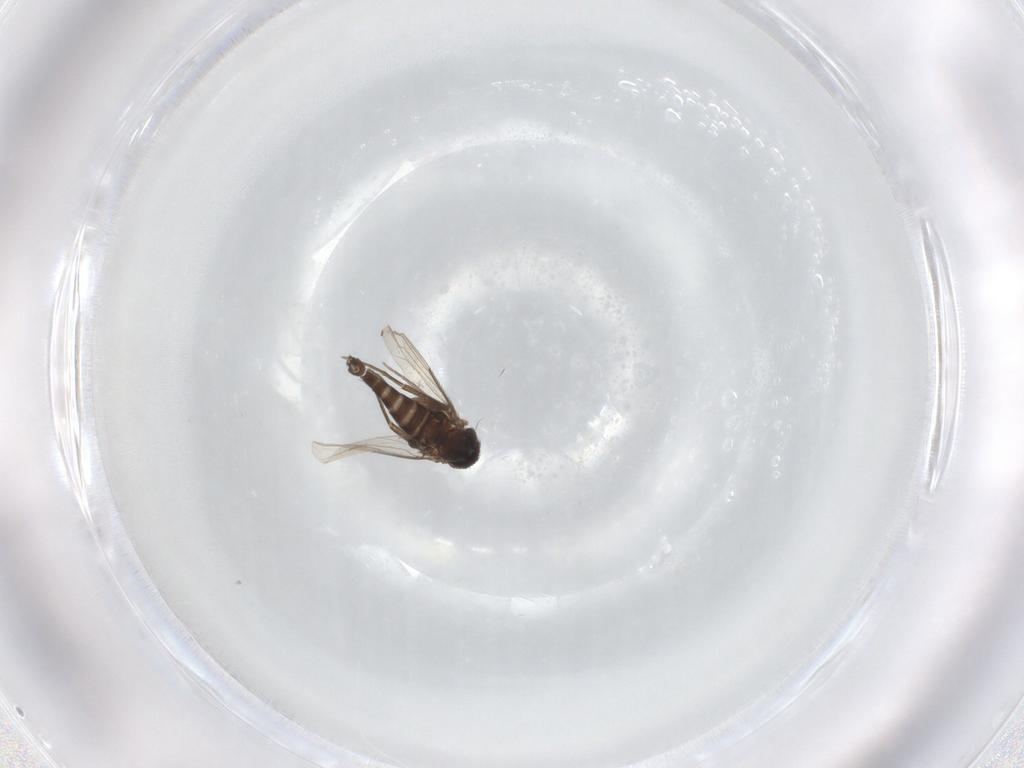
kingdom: Animalia
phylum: Arthropoda
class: Insecta
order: Diptera
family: Phoridae
